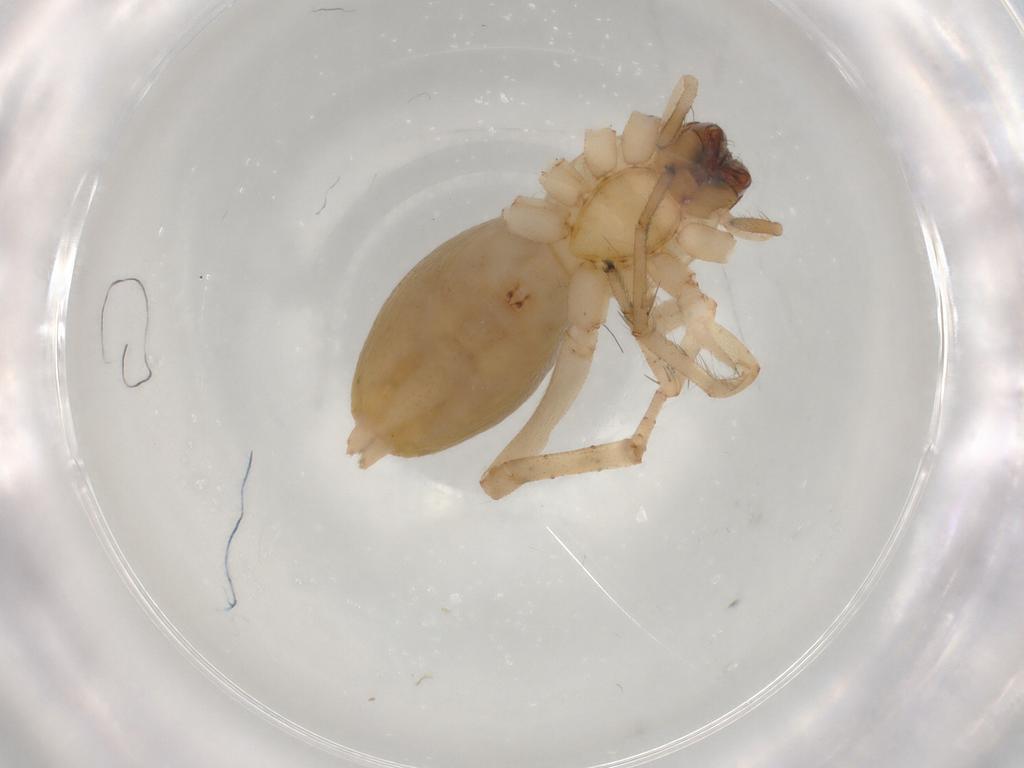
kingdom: Animalia
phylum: Arthropoda
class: Arachnida
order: Araneae
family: Anyphaenidae
